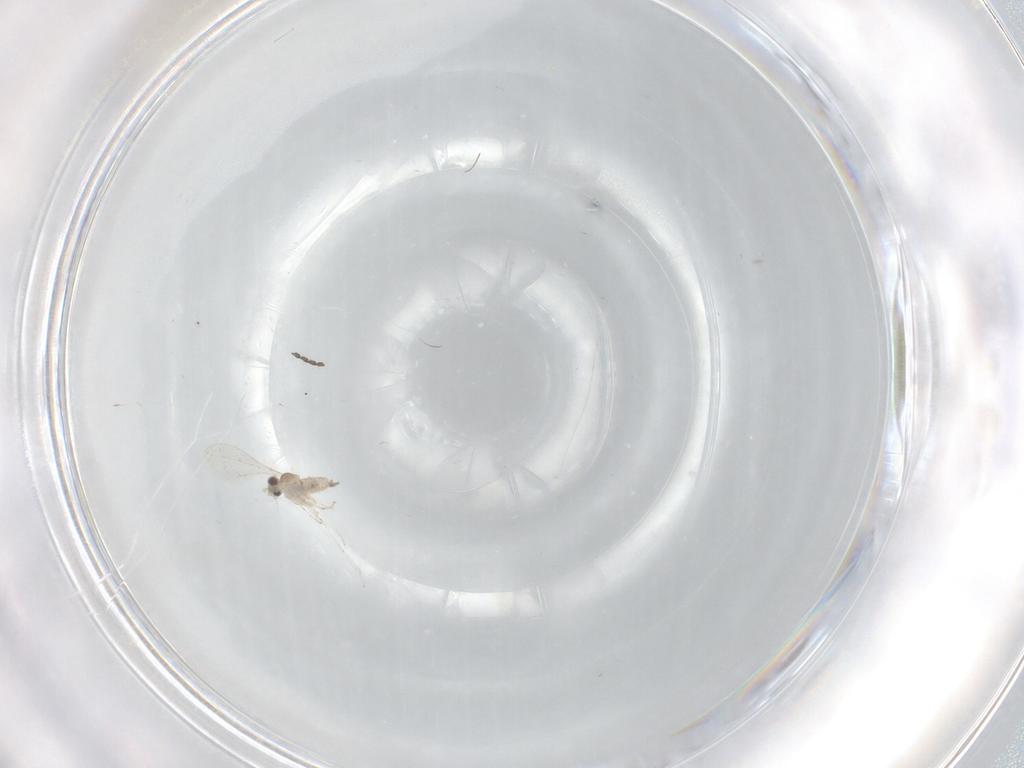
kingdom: Animalia
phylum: Arthropoda
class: Insecta
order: Diptera
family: Cecidomyiidae
